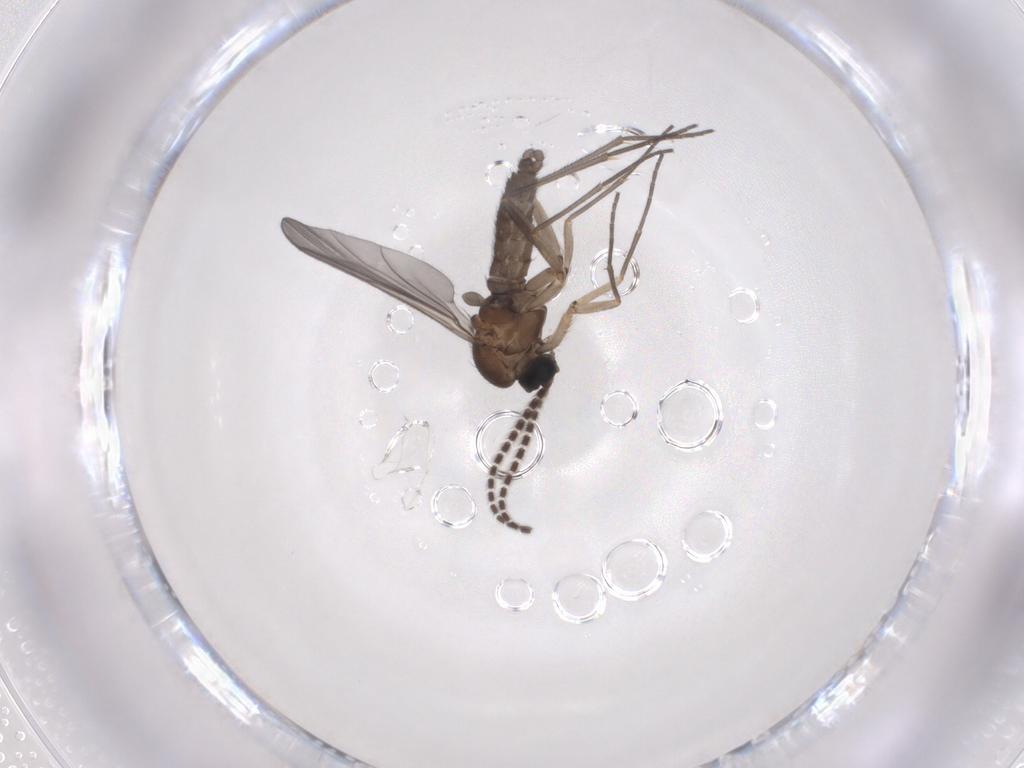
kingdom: Animalia
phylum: Arthropoda
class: Insecta
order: Diptera
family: Sciaridae
